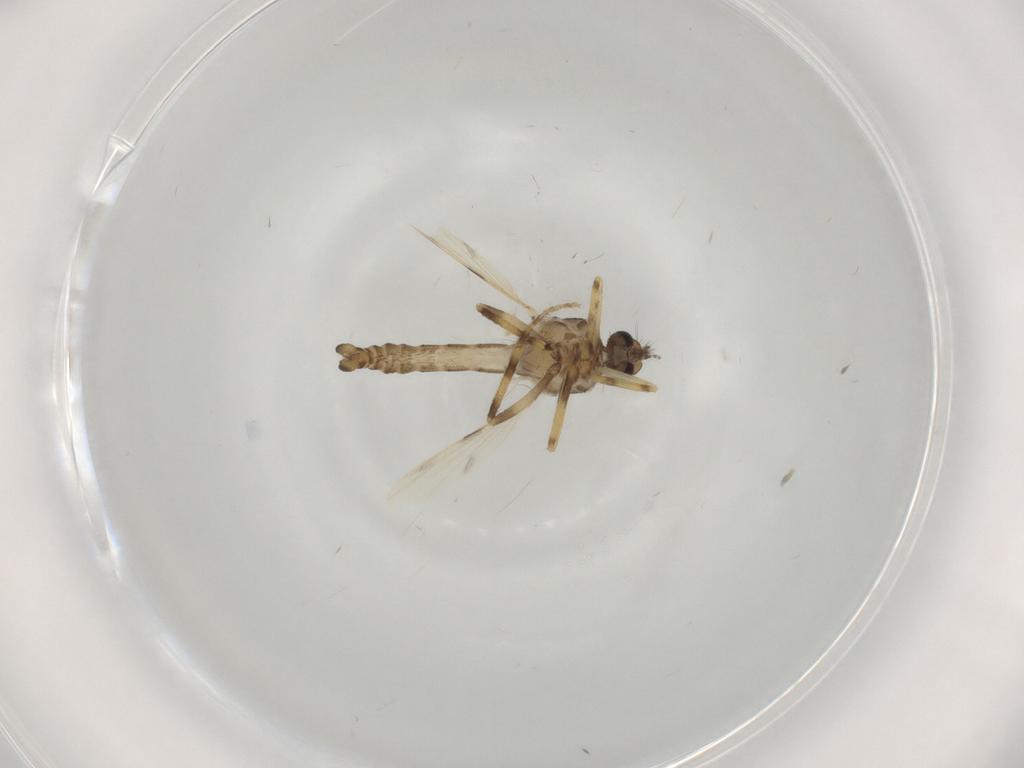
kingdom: Animalia
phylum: Arthropoda
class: Insecta
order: Diptera
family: Ceratopogonidae
